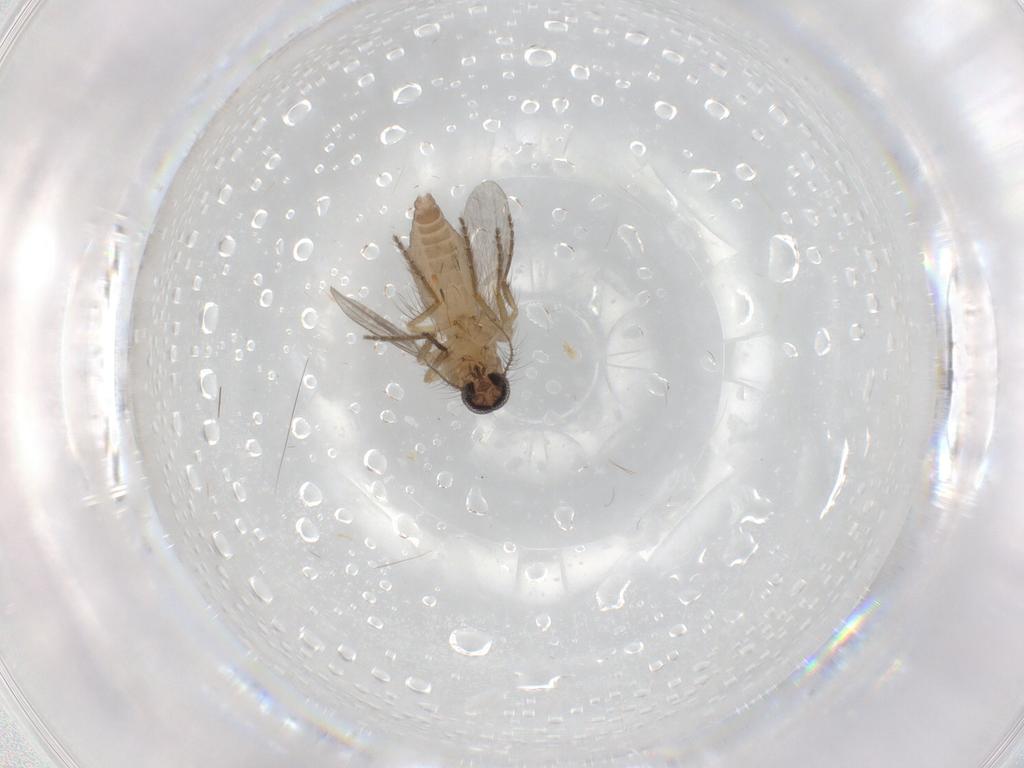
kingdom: Animalia
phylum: Arthropoda
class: Insecta
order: Diptera
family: Ceratopogonidae
